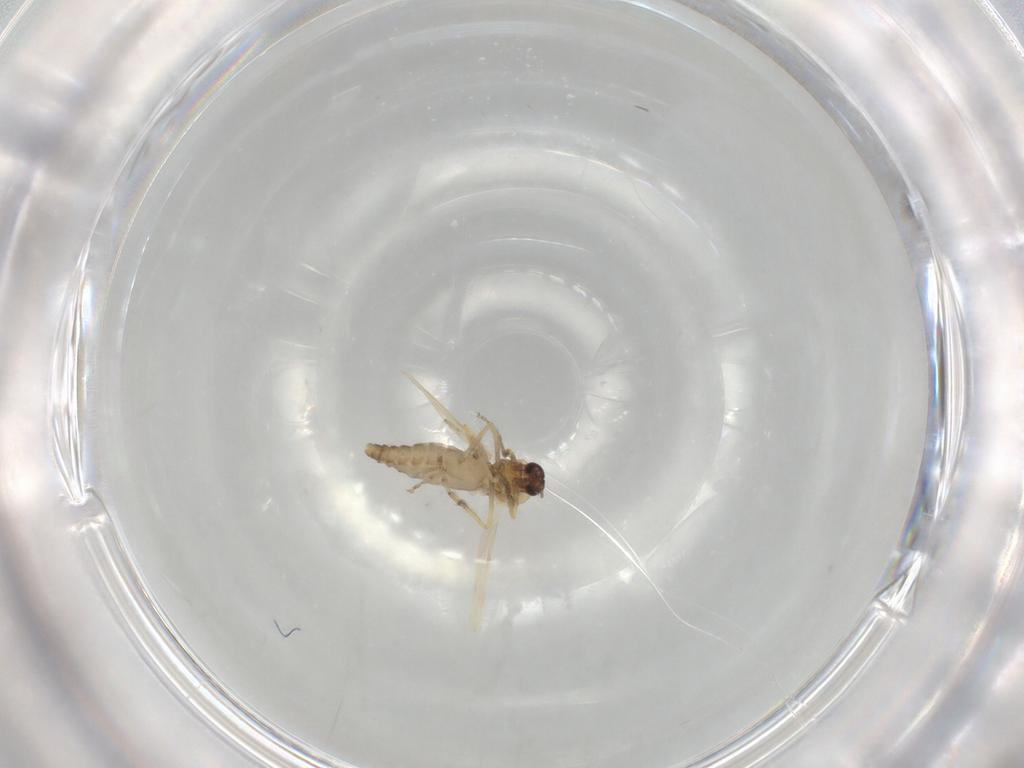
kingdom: Animalia
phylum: Arthropoda
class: Insecta
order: Diptera
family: Ceratopogonidae
